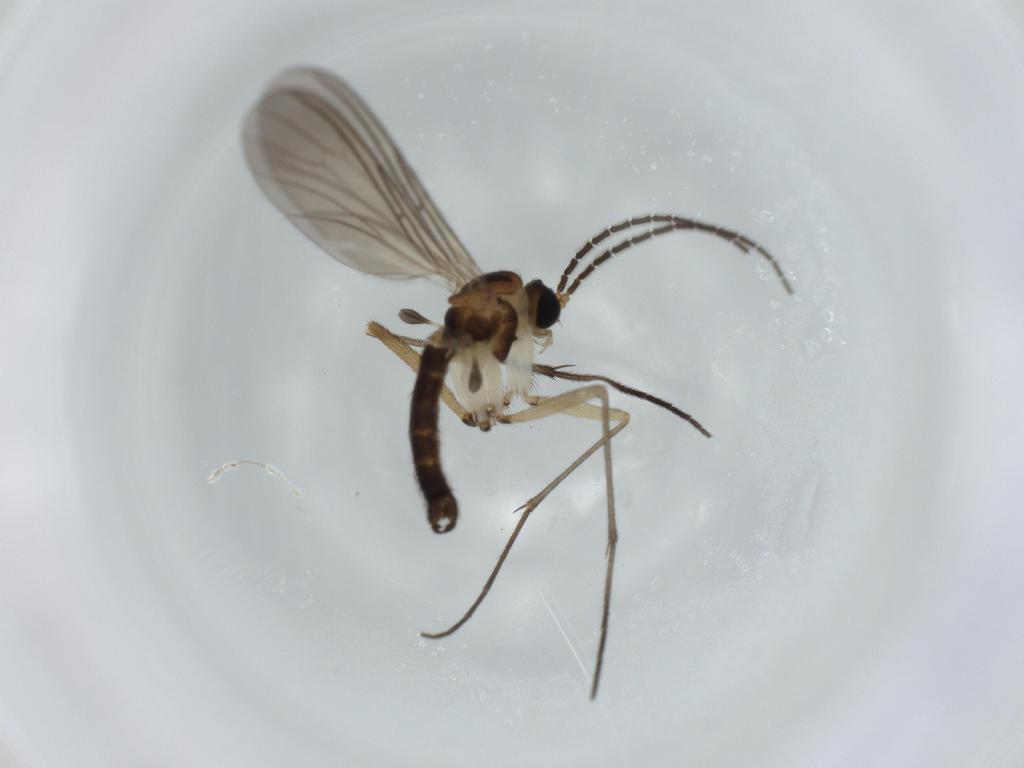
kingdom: Animalia
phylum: Arthropoda
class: Insecta
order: Diptera
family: Sciaridae
